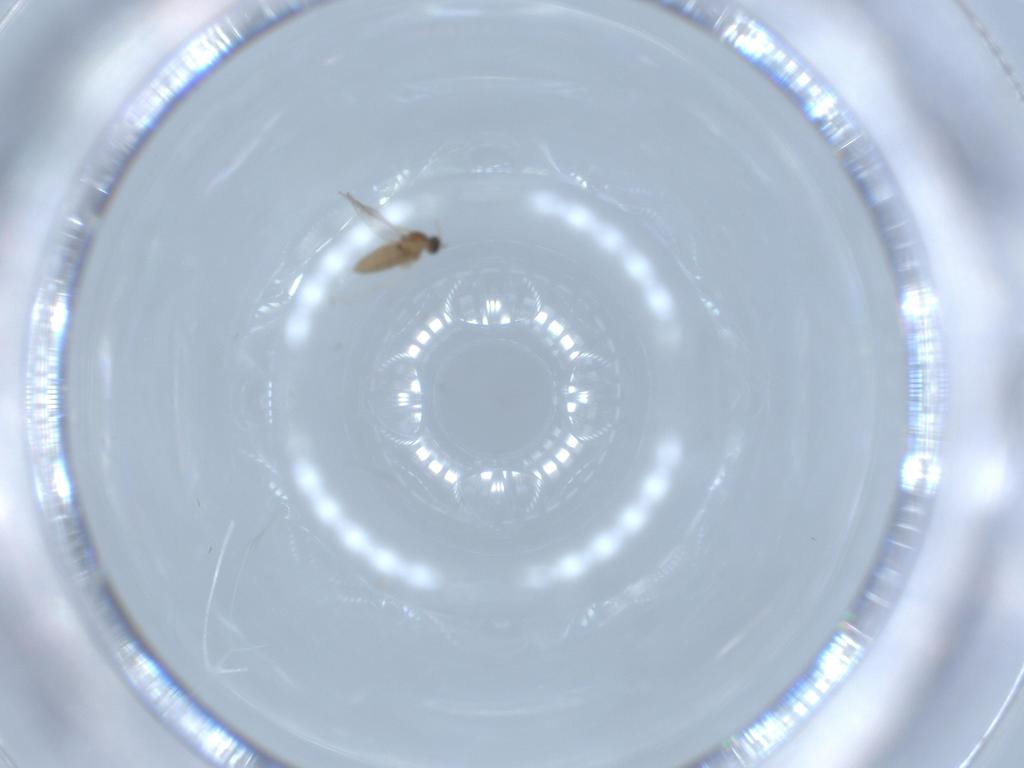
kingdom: Animalia
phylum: Arthropoda
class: Insecta
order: Diptera
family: Cecidomyiidae
